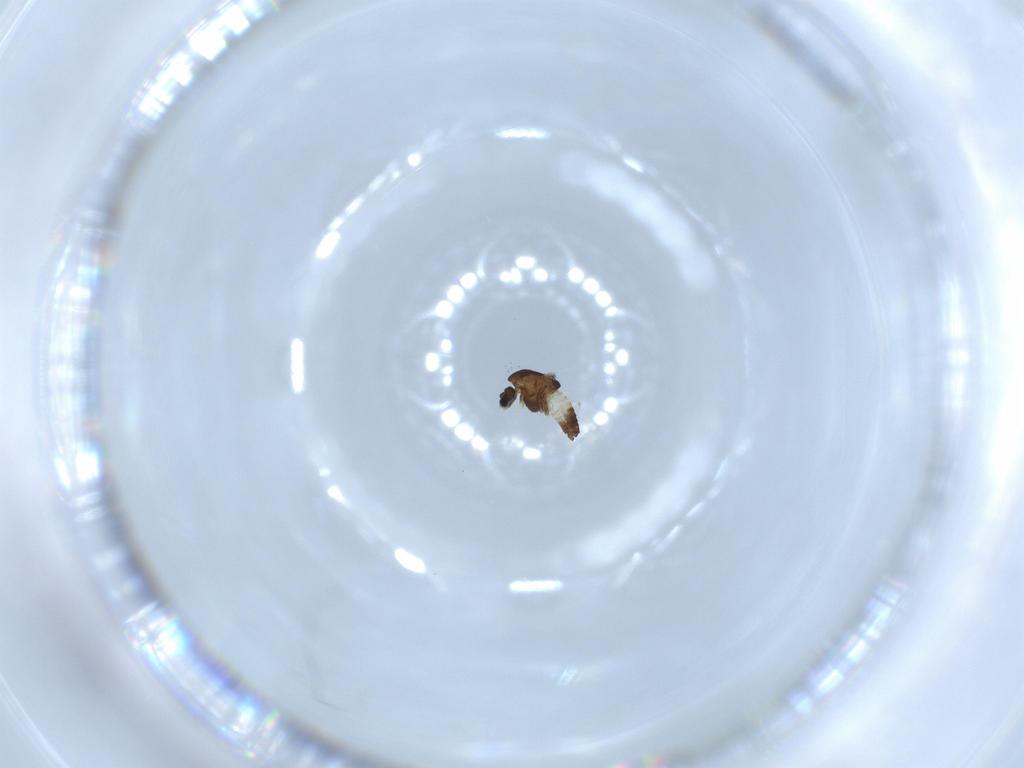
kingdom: Animalia
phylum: Arthropoda
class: Insecta
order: Diptera
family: Chironomidae
